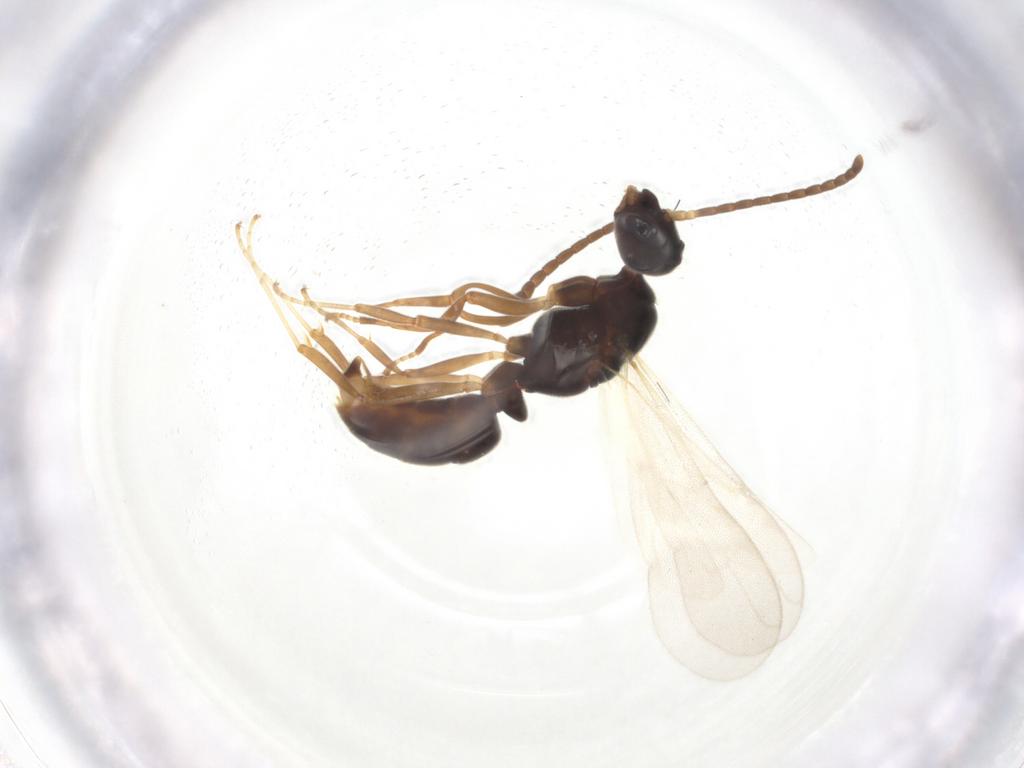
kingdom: Animalia
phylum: Arthropoda
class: Insecta
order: Hymenoptera
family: Formicidae
